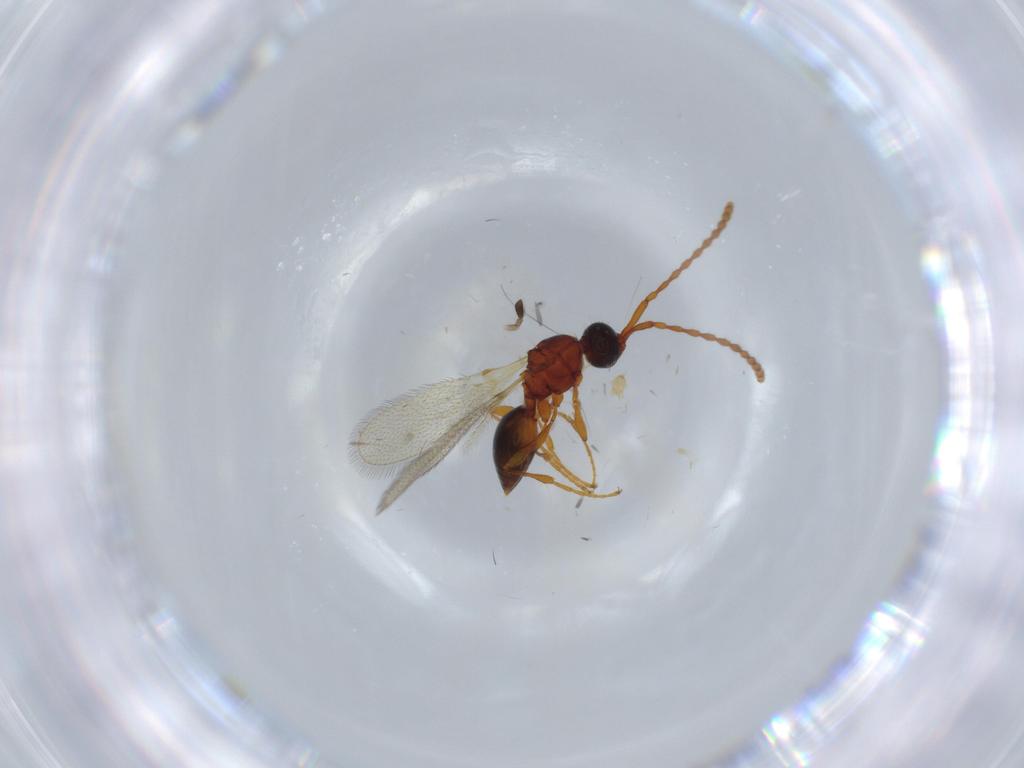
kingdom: Animalia
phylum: Arthropoda
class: Insecta
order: Hymenoptera
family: Diapriidae
